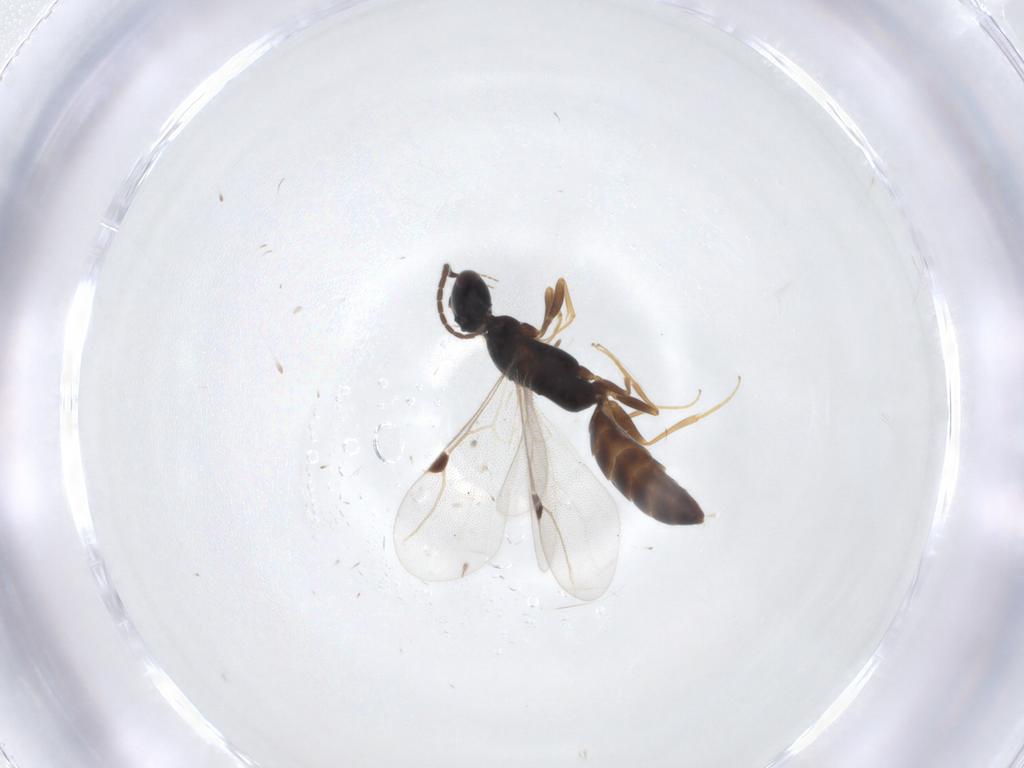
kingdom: Animalia
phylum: Arthropoda
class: Insecta
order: Hymenoptera
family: Bethylidae
